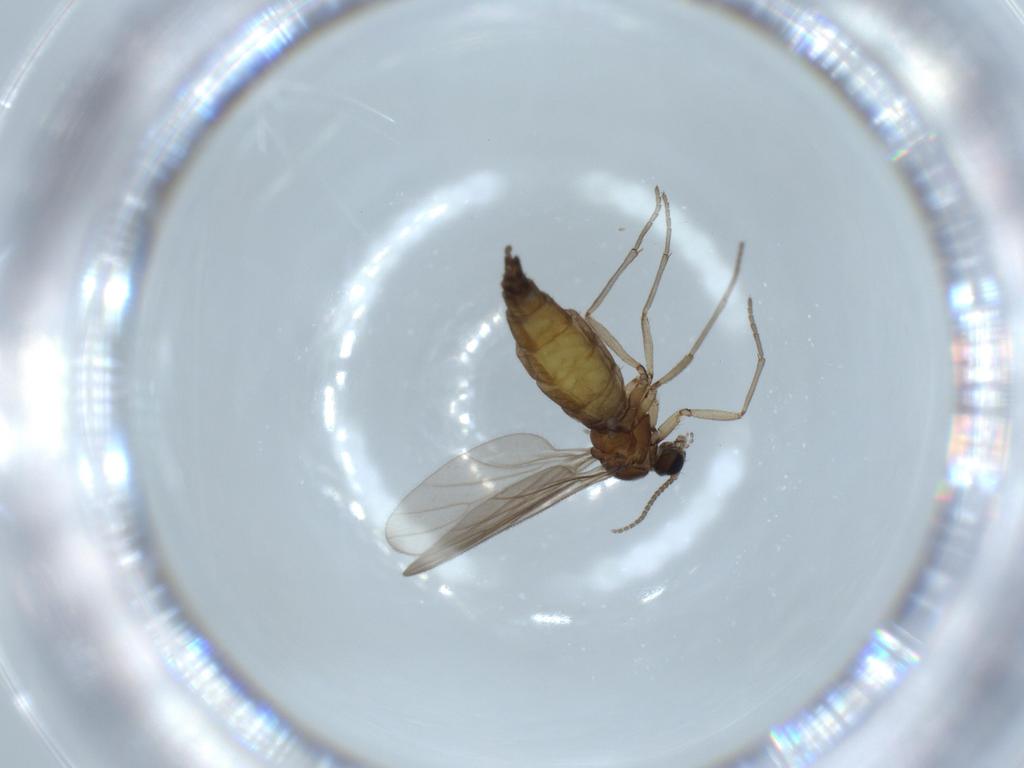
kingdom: Animalia
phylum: Arthropoda
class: Insecta
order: Diptera
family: Sciaridae
